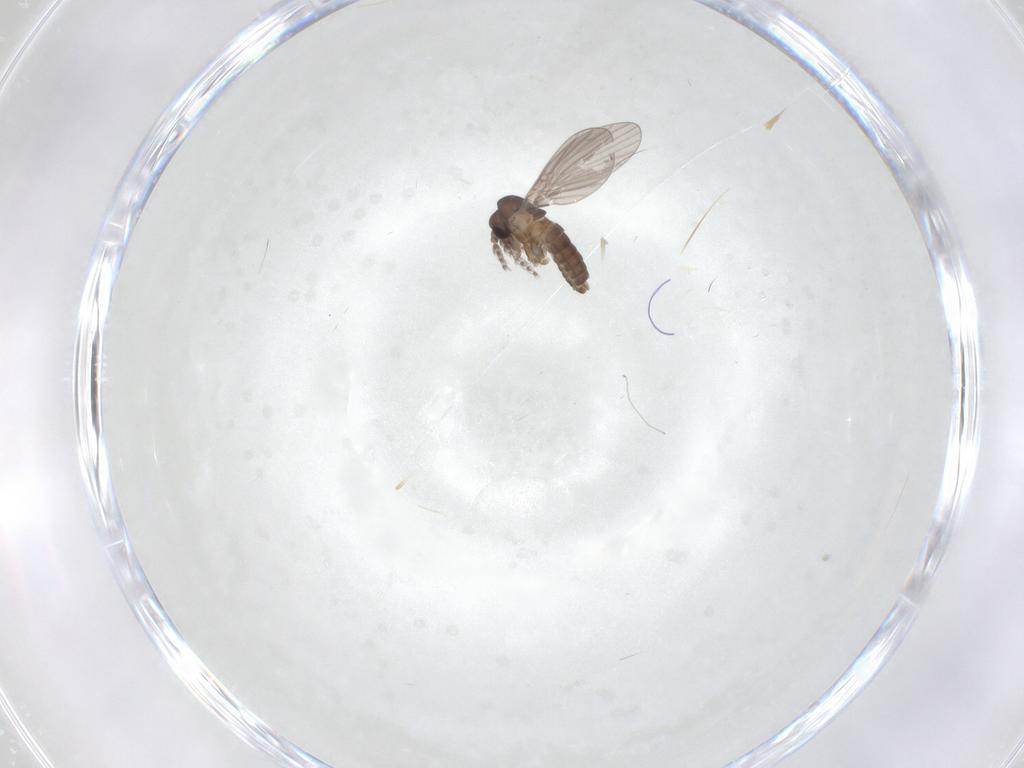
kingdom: Animalia
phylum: Arthropoda
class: Insecta
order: Diptera
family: Sciaridae
